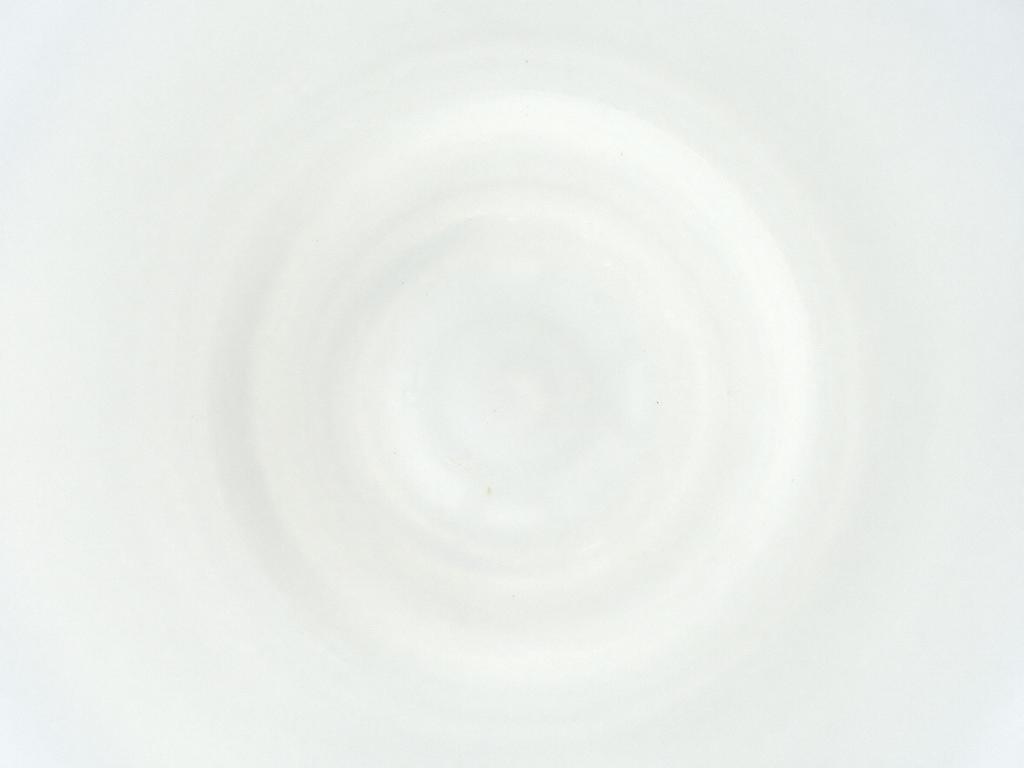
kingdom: Animalia
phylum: Arthropoda
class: Arachnida
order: Mesostigmata
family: Phytoseiidae
